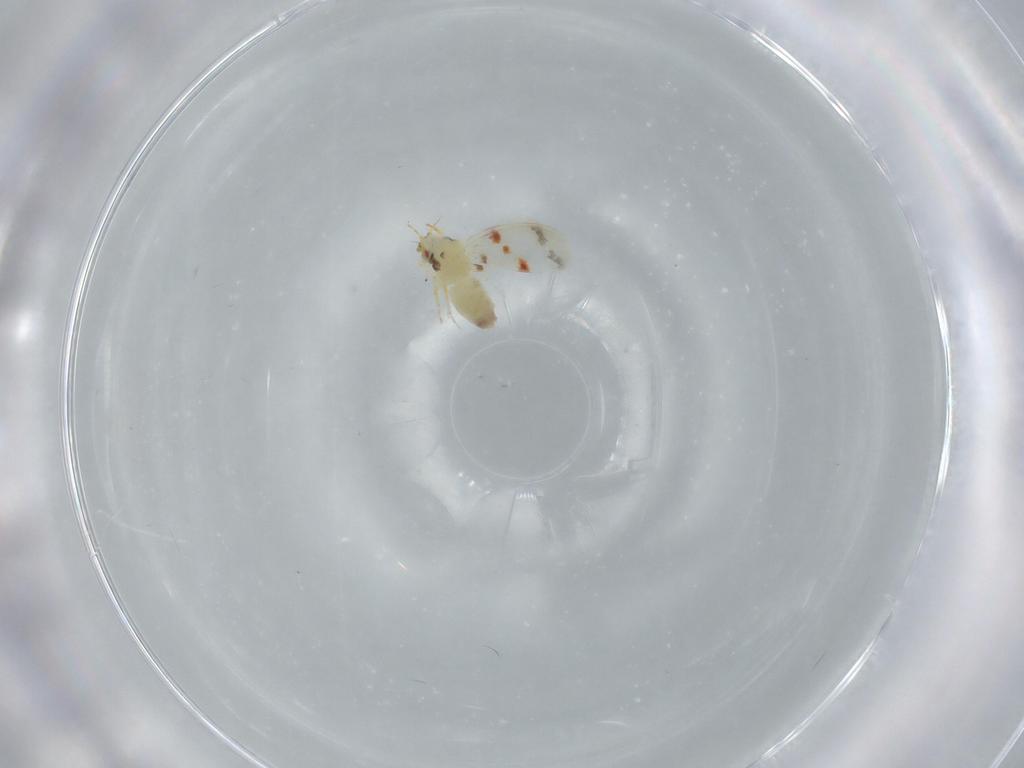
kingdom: Animalia
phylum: Arthropoda
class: Insecta
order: Hemiptera
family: Aleyrodidae
